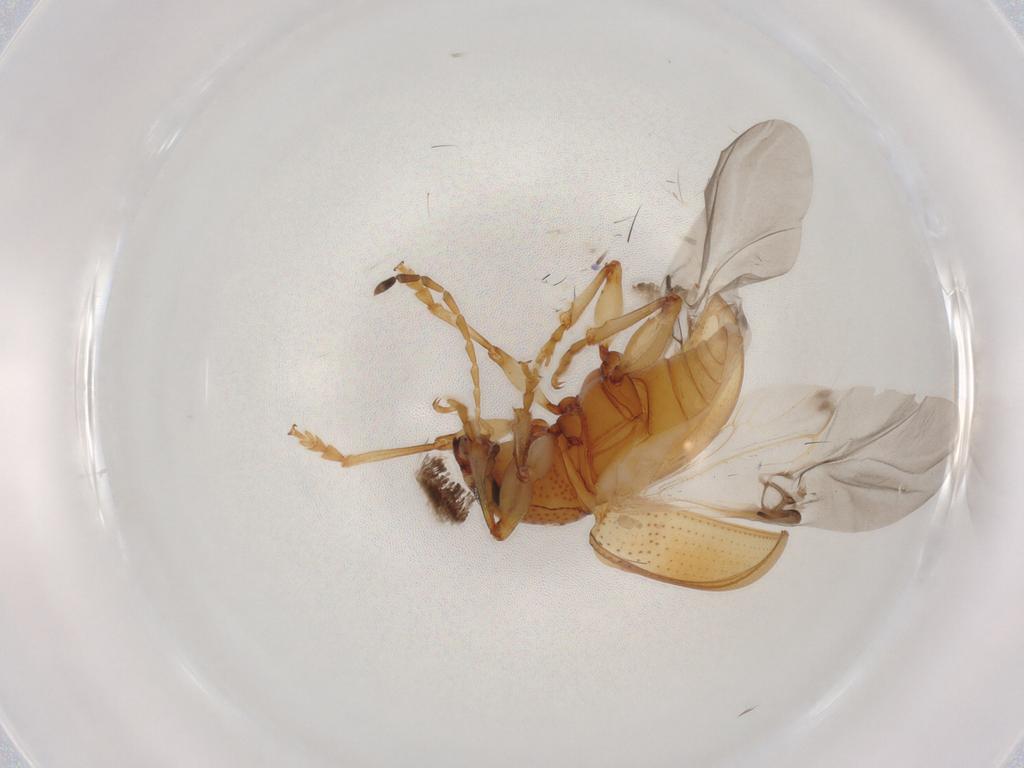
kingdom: Animalia
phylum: Arthropoda
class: Insecta
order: Coleoptera
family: Chrysomelidae
